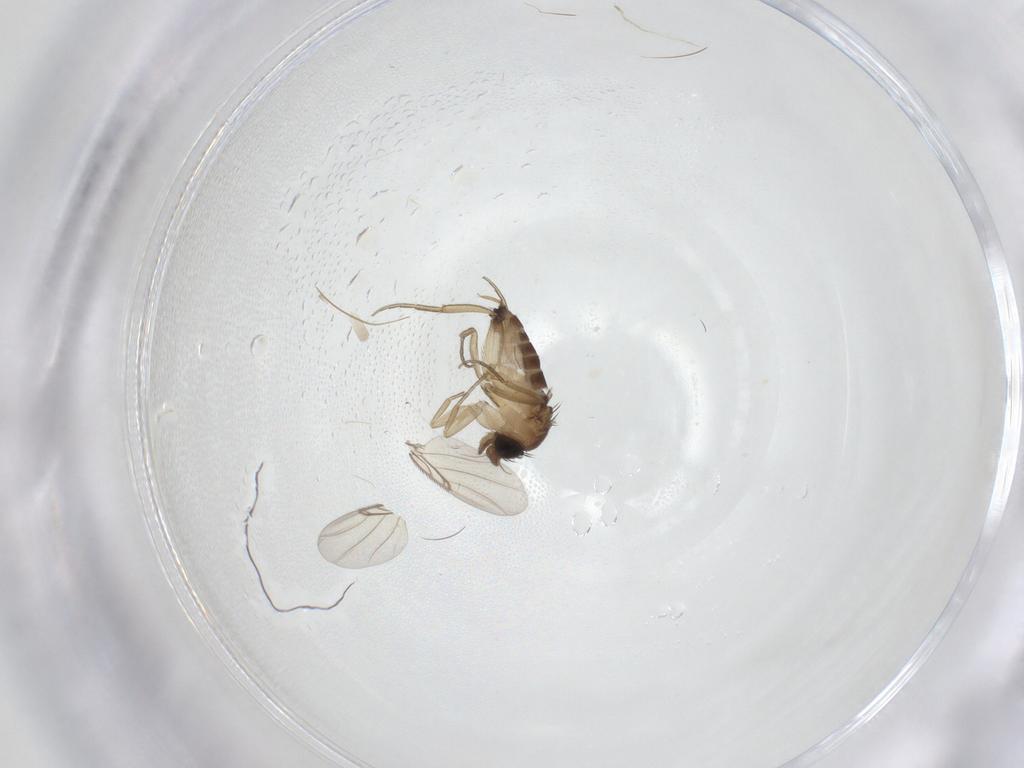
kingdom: Animalia
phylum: Arthropoda
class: Insecta
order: Diptera
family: Phoridae
